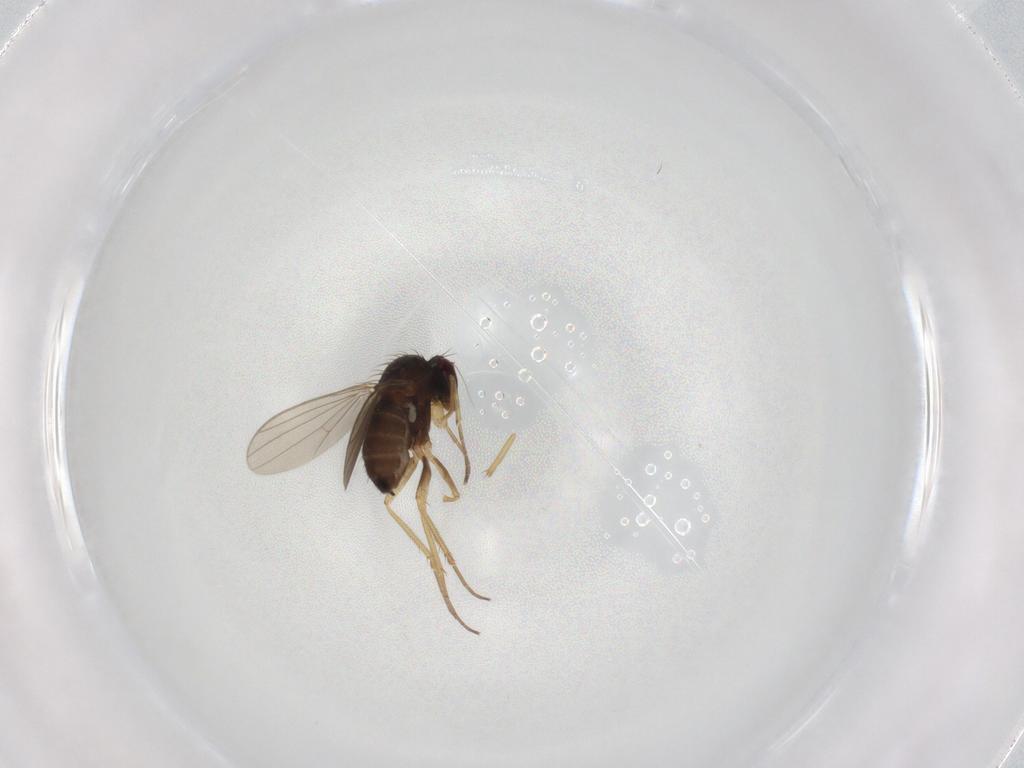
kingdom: Animalia
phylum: Arthropoda
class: Insecta
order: Diptera
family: Dolichopodidae
